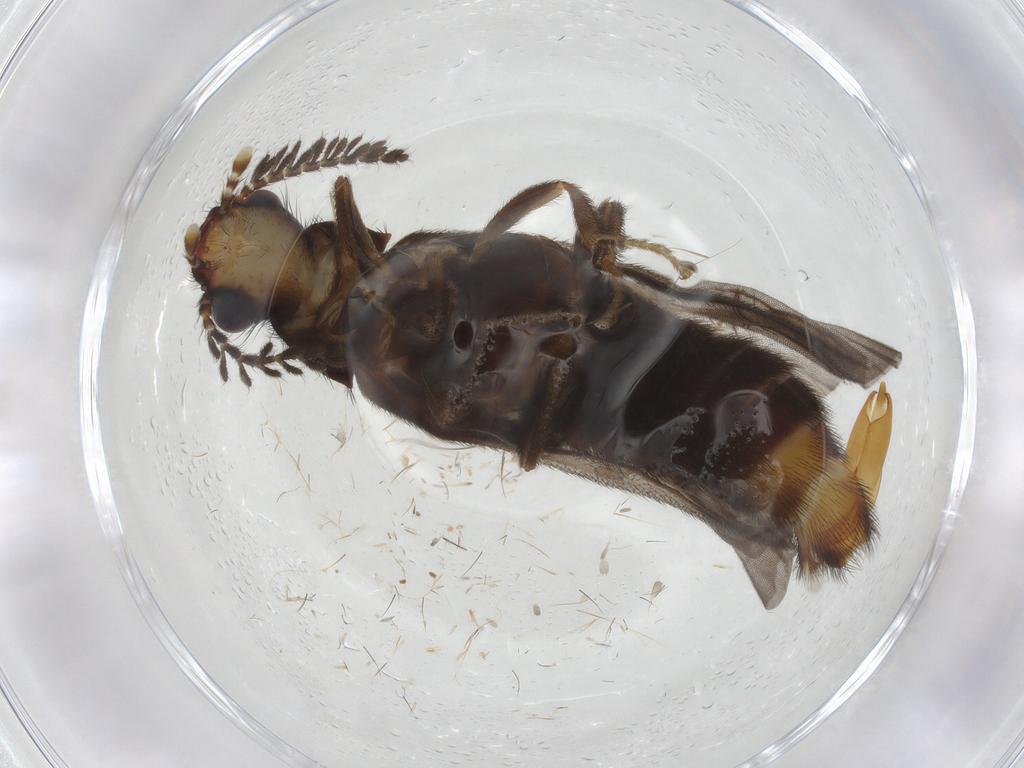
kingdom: Animalia
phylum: Arthropoda
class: Insecta
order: Coleoptera
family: Phengodidae
